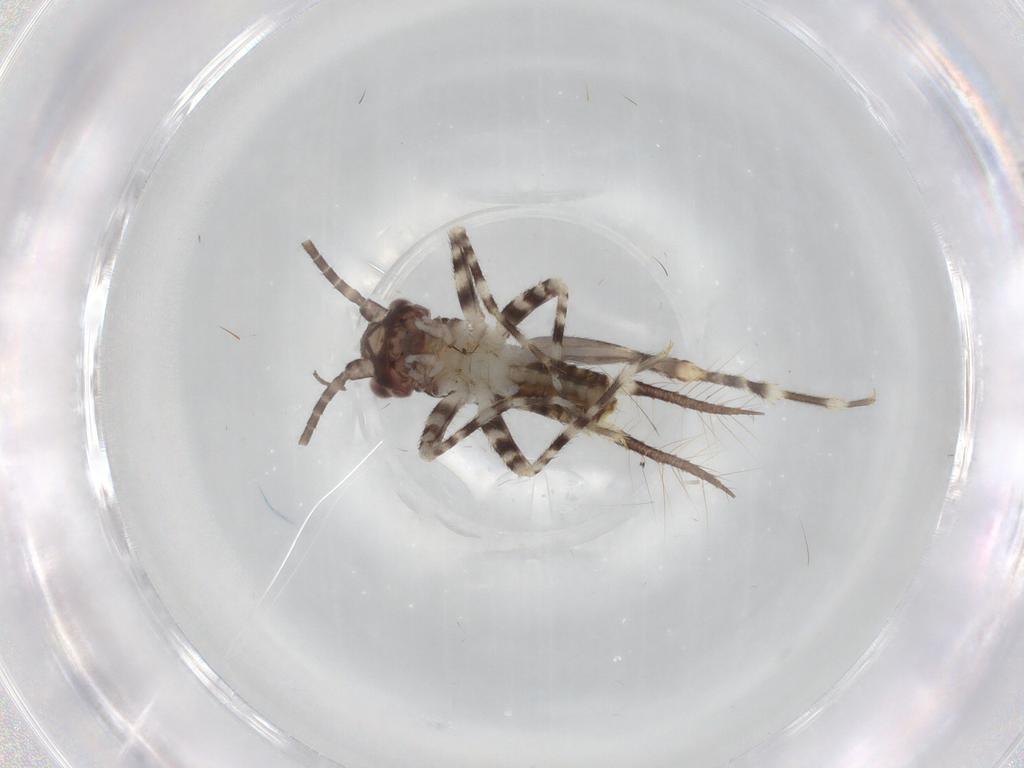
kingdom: Animalia
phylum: Arthropoda
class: Insecta
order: Orthoptera
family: Gryllidae
